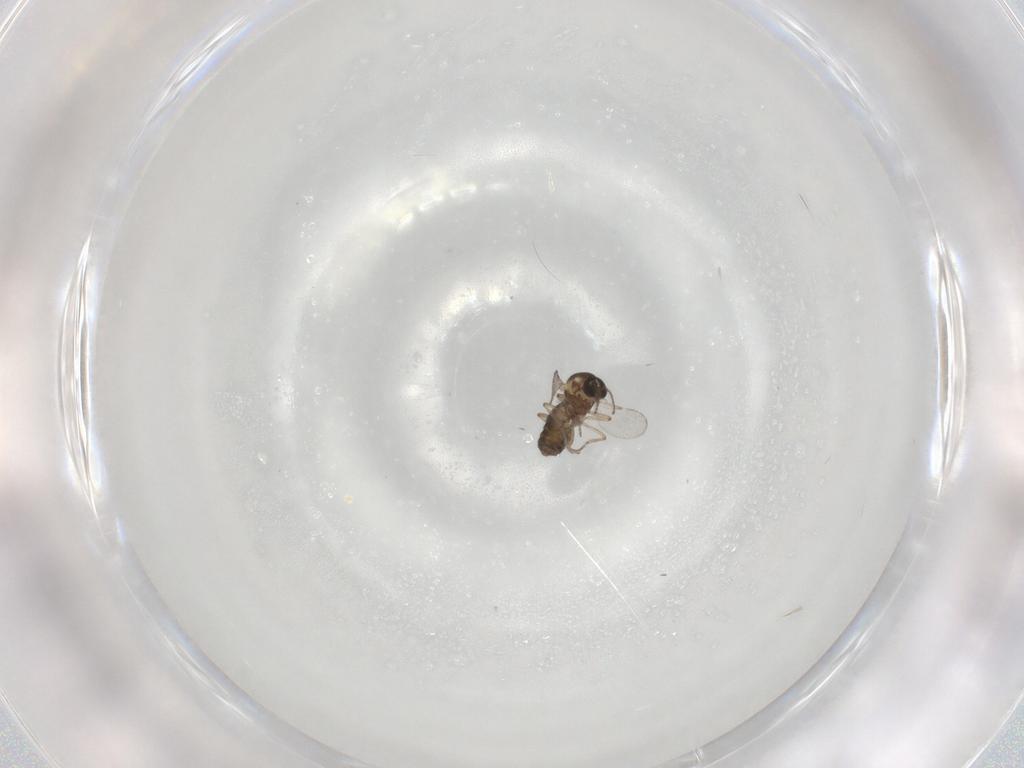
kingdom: Animalia
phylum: Arthropoda
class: Insecta
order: Diptera
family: Ceratopogonidae
